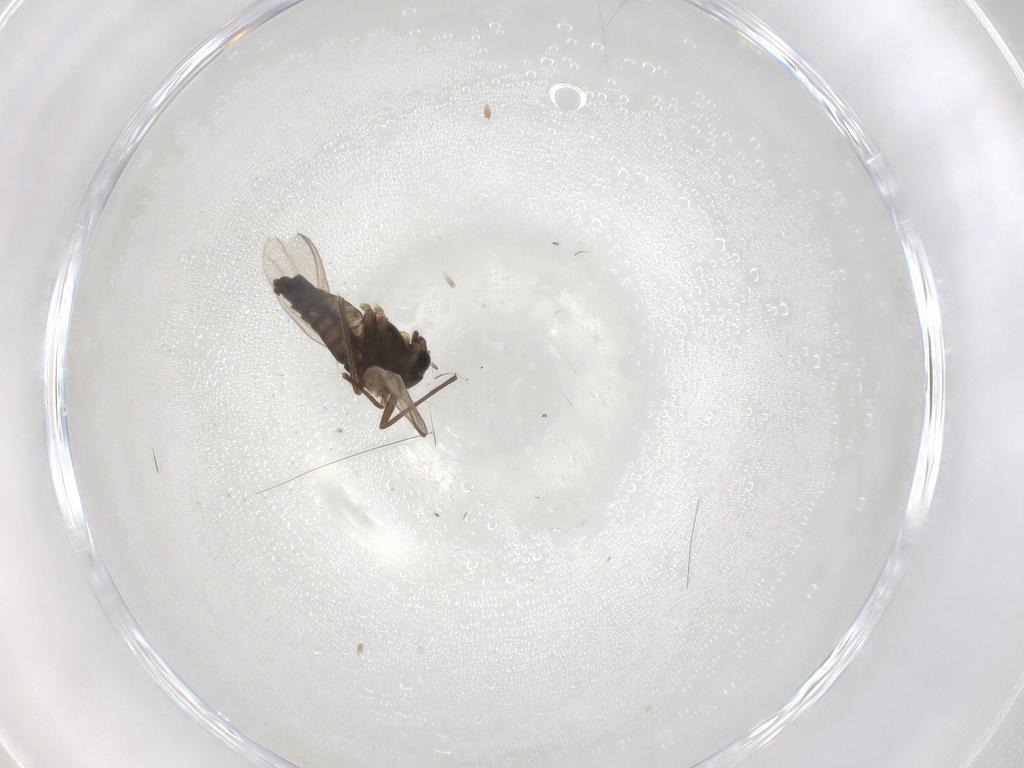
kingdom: Animalia
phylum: Arthropoda
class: Insecta
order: Diptera
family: Chironomidae
